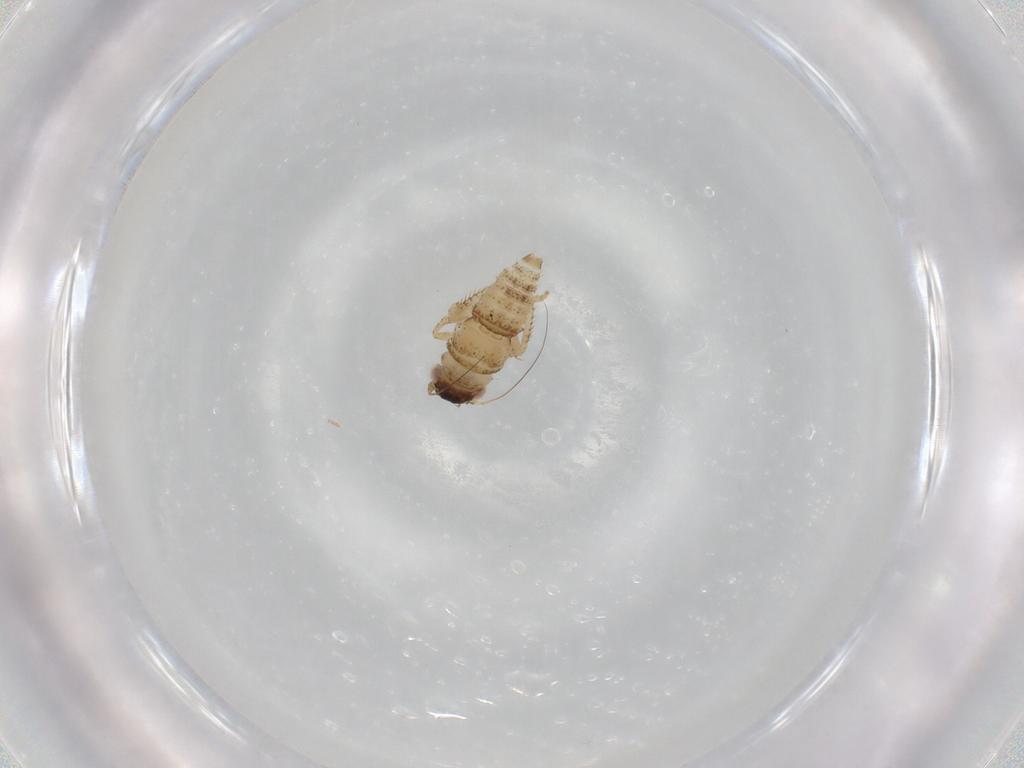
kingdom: Animalia
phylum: Arthropoda
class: Insecta
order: Hemiptera
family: Cicadellidae
